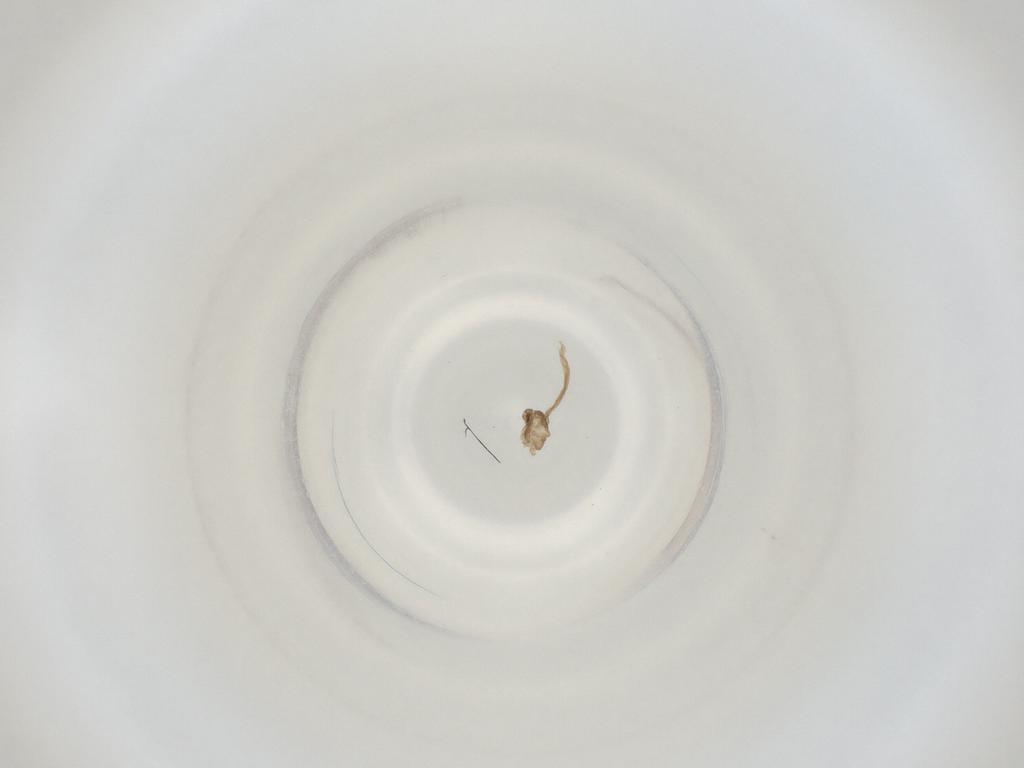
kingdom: Animalia
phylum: Arthropoda
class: Insecta
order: Diptera
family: Cecidomyiidae
